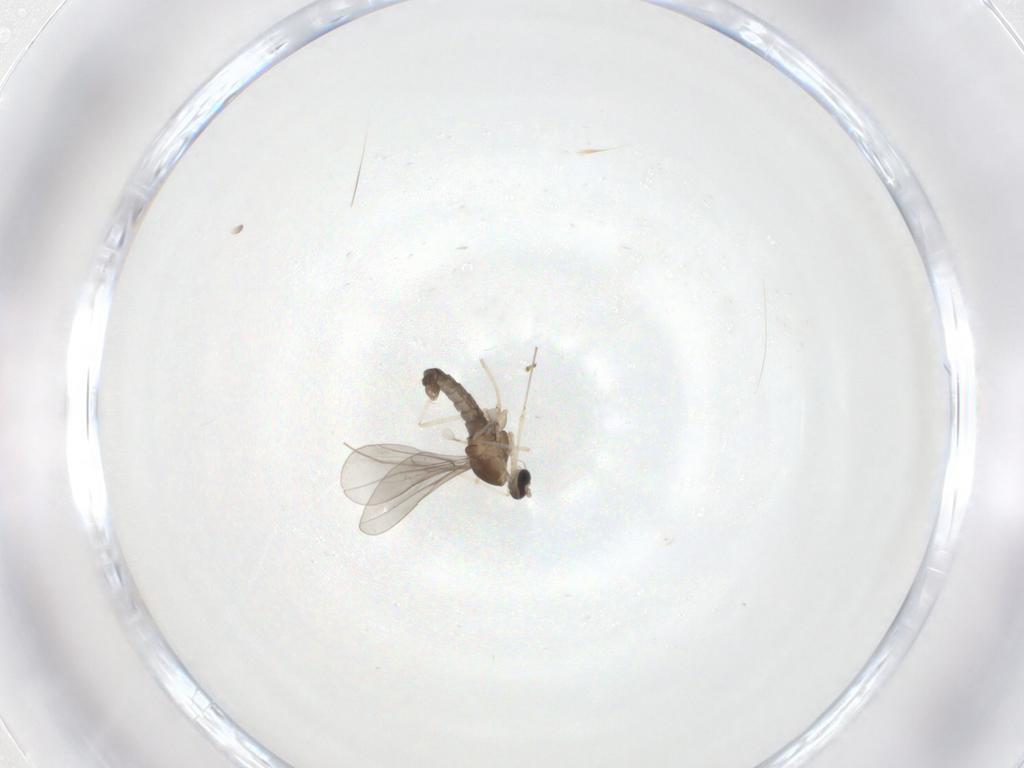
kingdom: Animalia
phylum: Arthropoda
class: Insecta
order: Diptera
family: Cecidomyiidae
